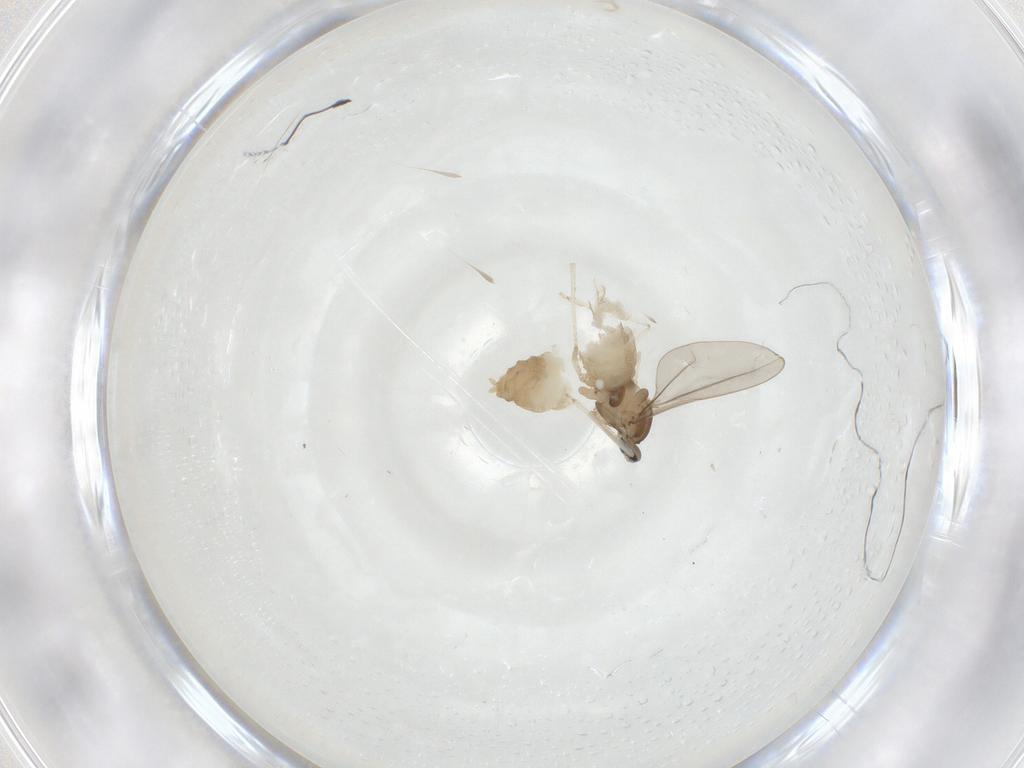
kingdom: Animalia
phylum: Arthropoda
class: Insecta
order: Diptera
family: Cecidomyiidae
